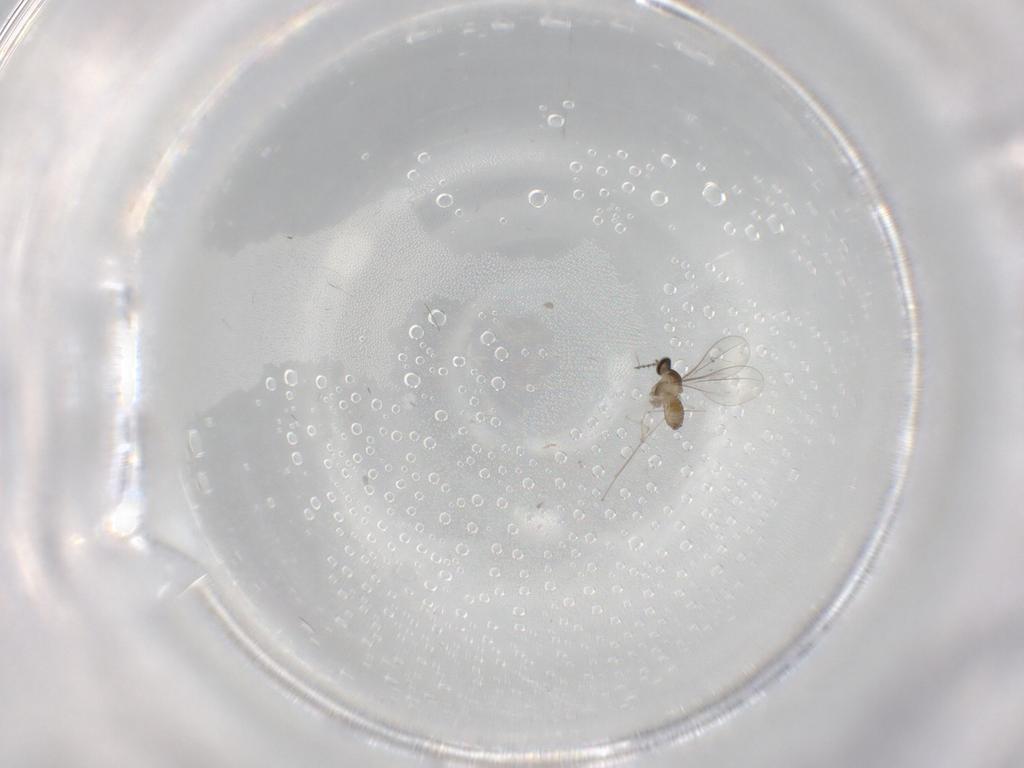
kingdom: Animalia
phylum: Arthropoda
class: Insecta
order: Diptera
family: Cecidomyiidae
